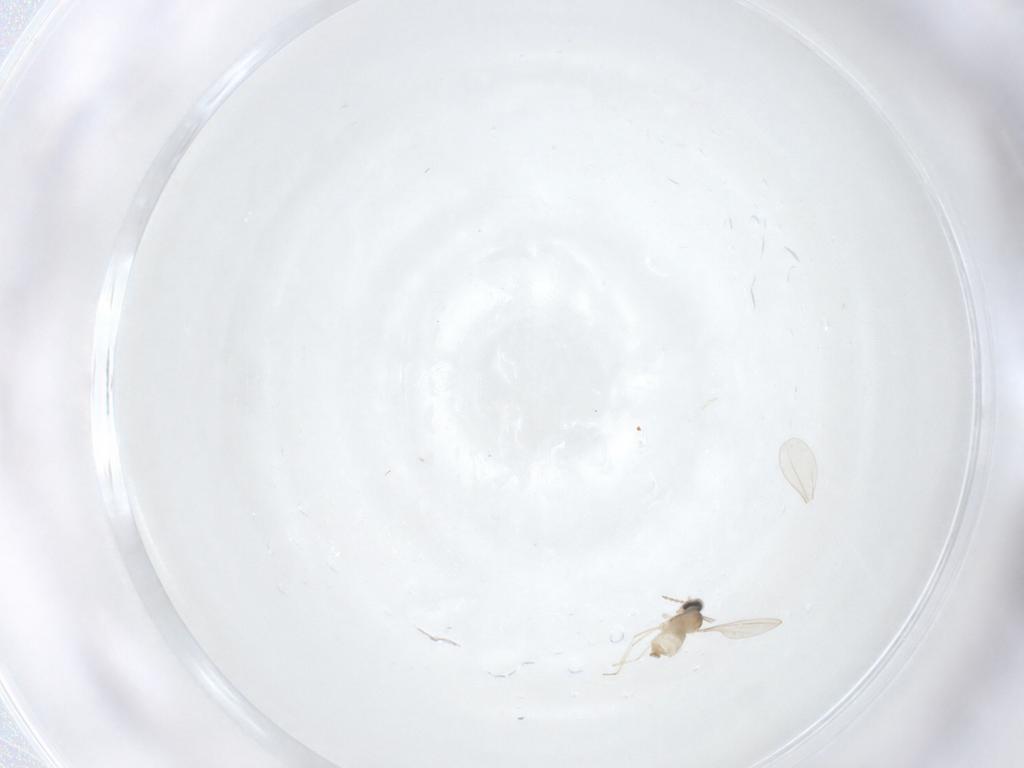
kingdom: Animalia
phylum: Arthropoda
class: Insecta
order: Diptera
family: Cecidomyiidae
